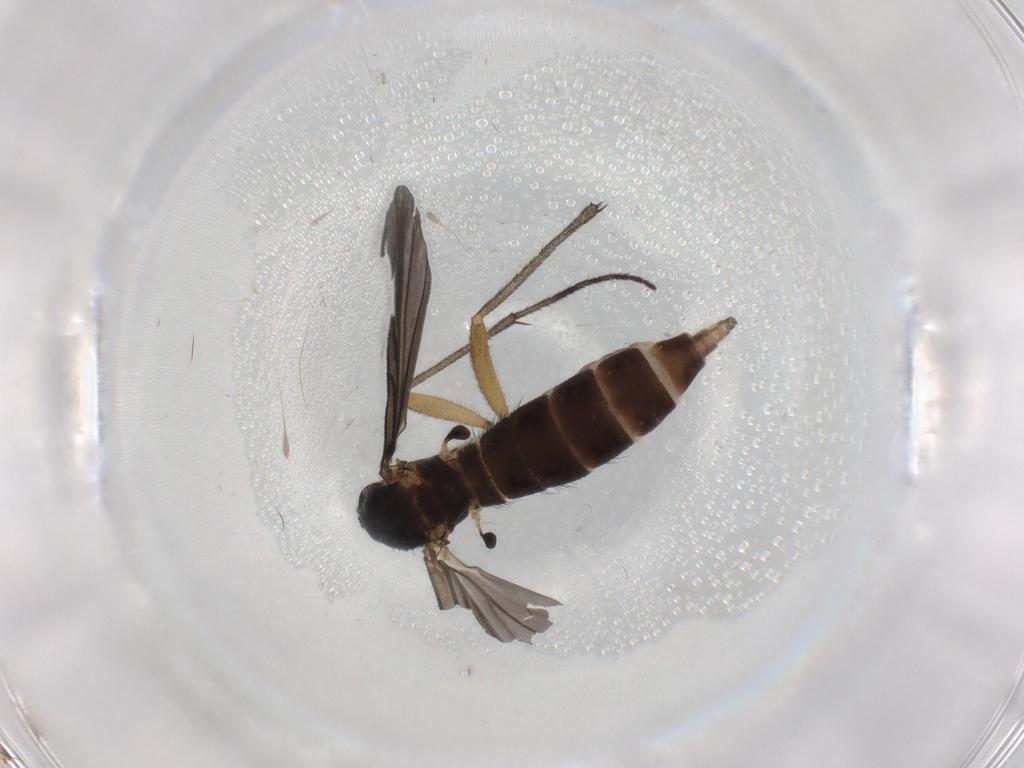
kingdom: Animalia
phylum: Arthropoda
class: Insecta
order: Diptera
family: Sciaridae
